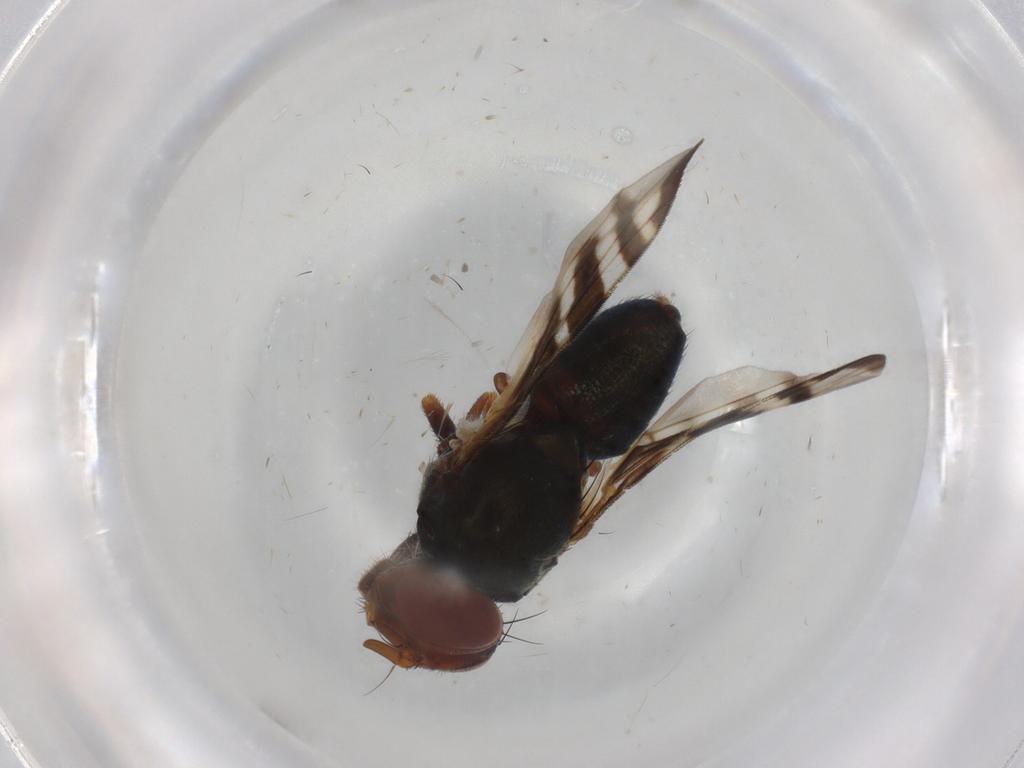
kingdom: Animalia
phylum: Arthropoda
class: Insecta
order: Diptera
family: Platystomatidae
